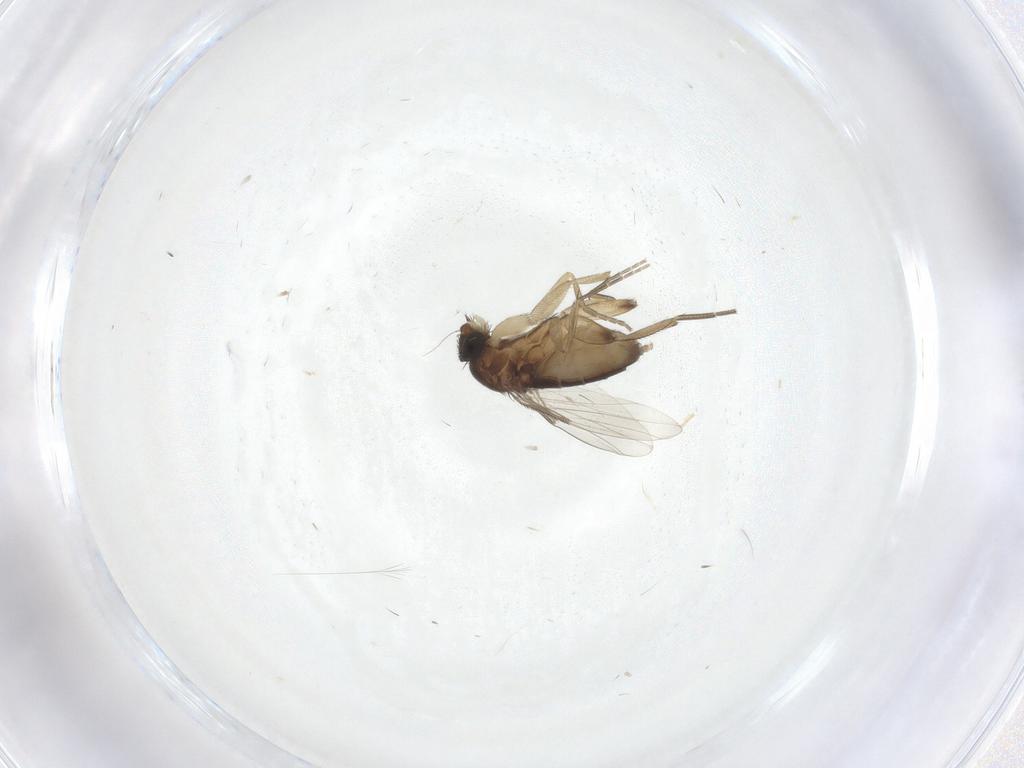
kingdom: Animalia
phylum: Arthropoda
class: Insecta
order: Diptera
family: Phoridae
